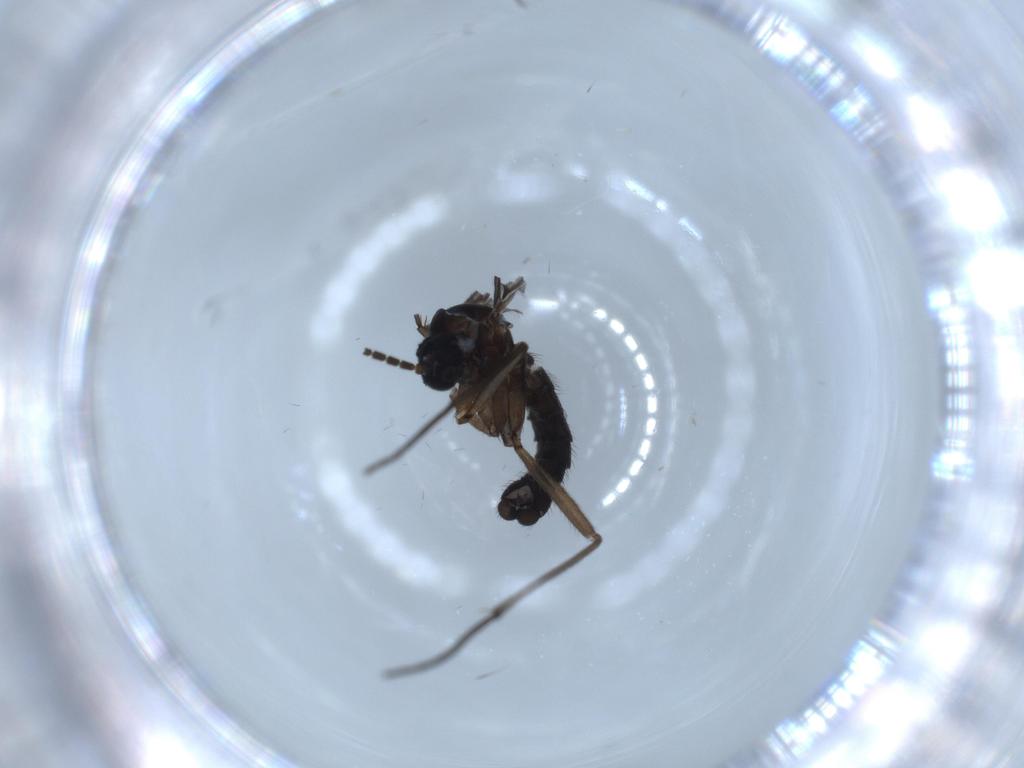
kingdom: Animalia
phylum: Arthropoda
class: Insecta
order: Diptera
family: Sciaridae
